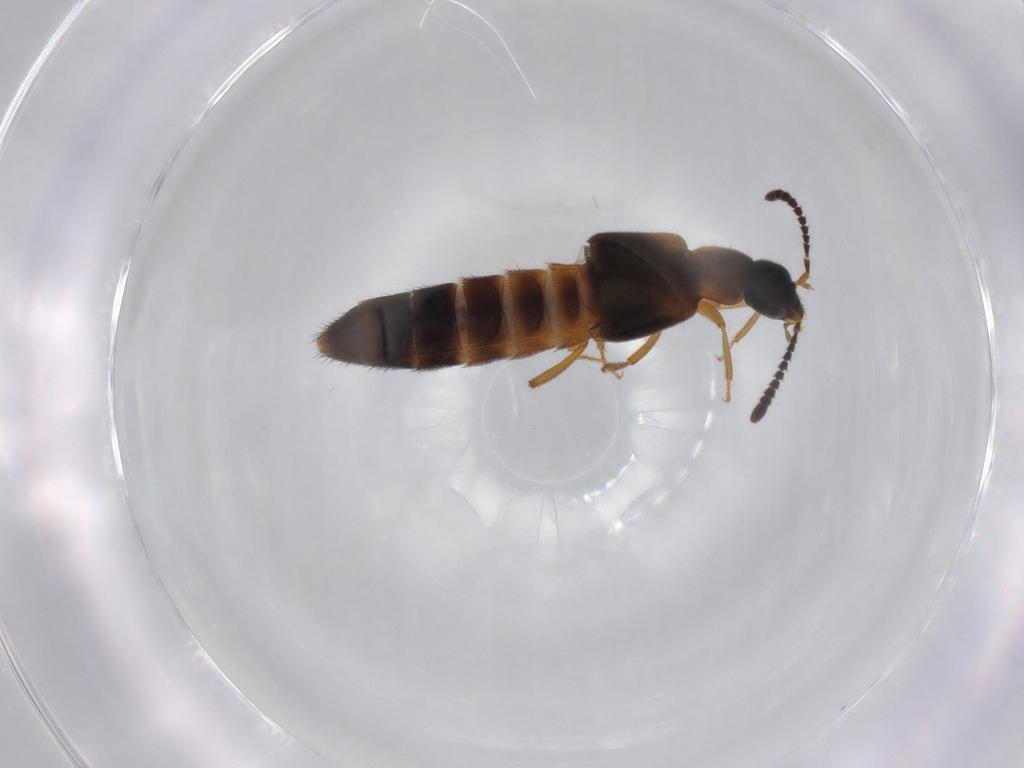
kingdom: Animalia
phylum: Arthropoda
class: Insecta
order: Coleoptera
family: Staphylinidae
